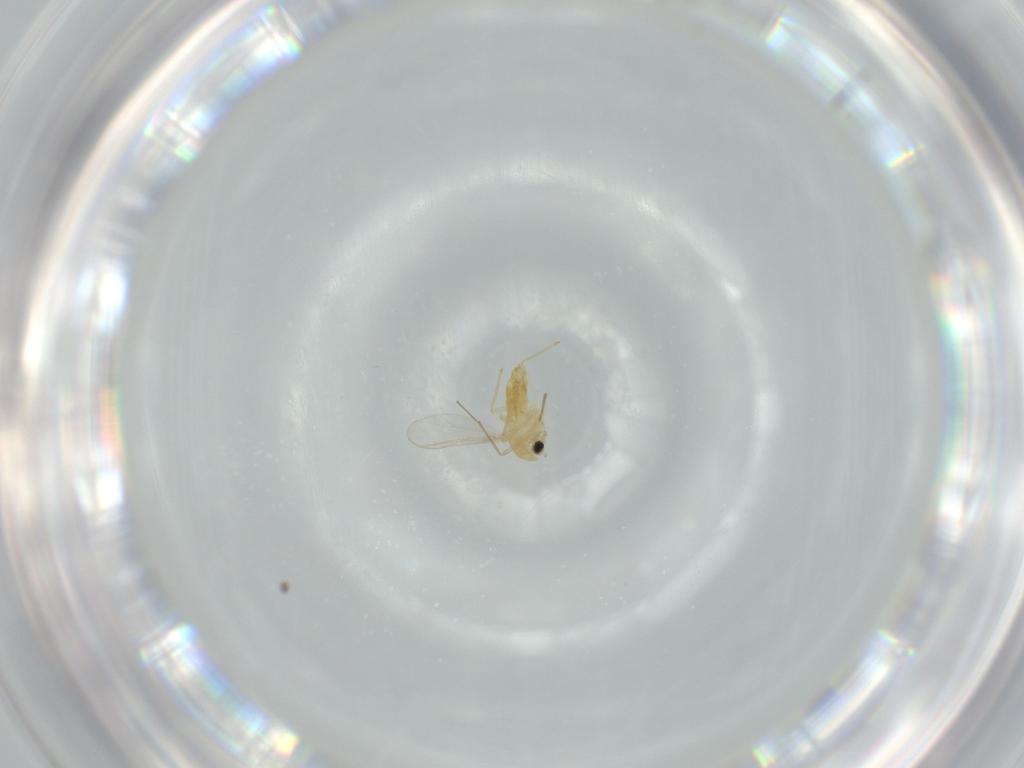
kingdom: Animalia
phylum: Arthropoda
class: Insecta
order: Diptera
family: Chironomidae
